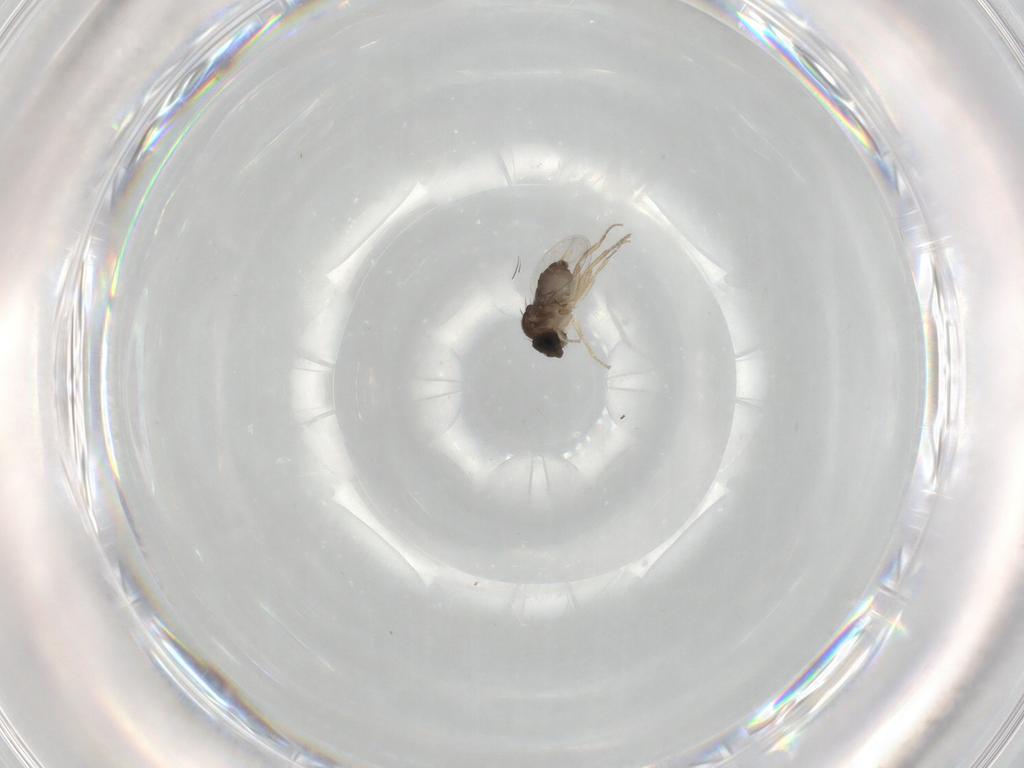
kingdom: Animalia
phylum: Arthropoda
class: Insecta
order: Diptera
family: Phoridae
